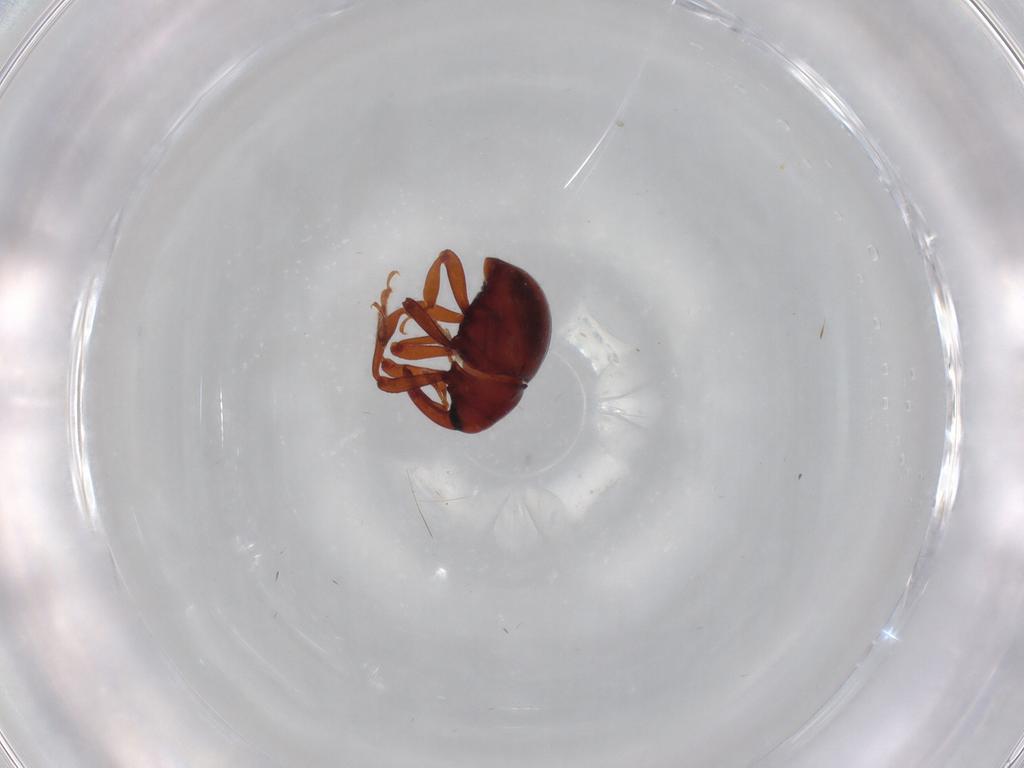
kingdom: Animalia
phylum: Arthropoda
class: Insecta
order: Coleoptera
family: Curculionidae
